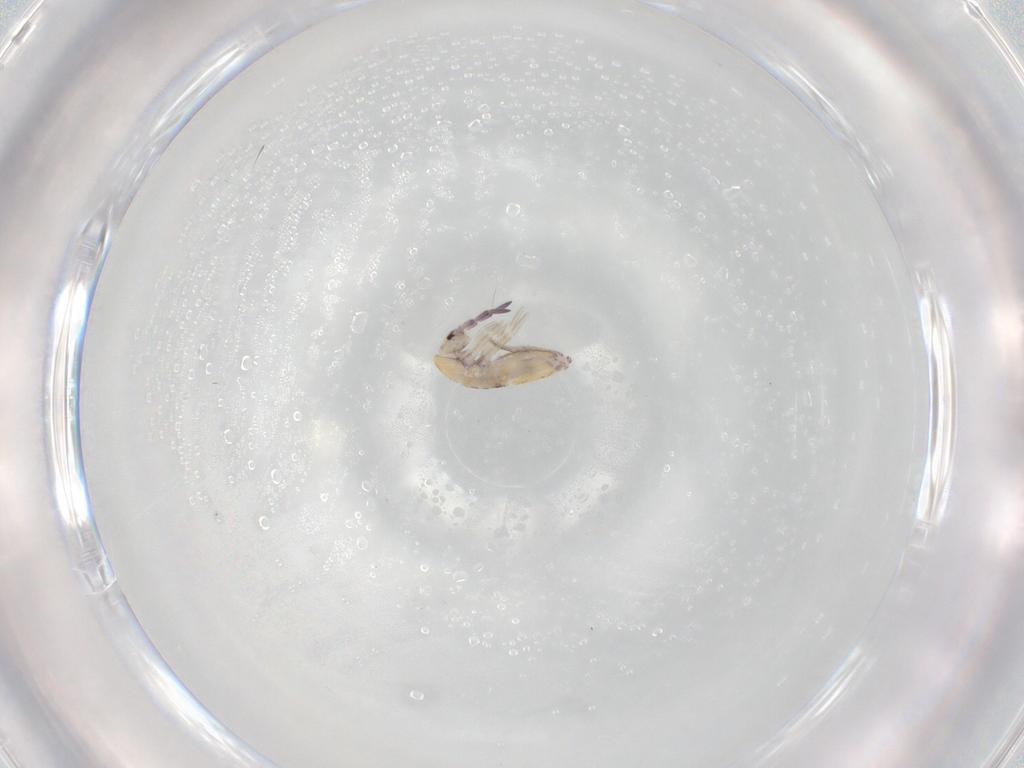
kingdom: Animalia
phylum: Arthropoda
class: Collembola
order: Entomobryomorpha
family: Entomobryidae
